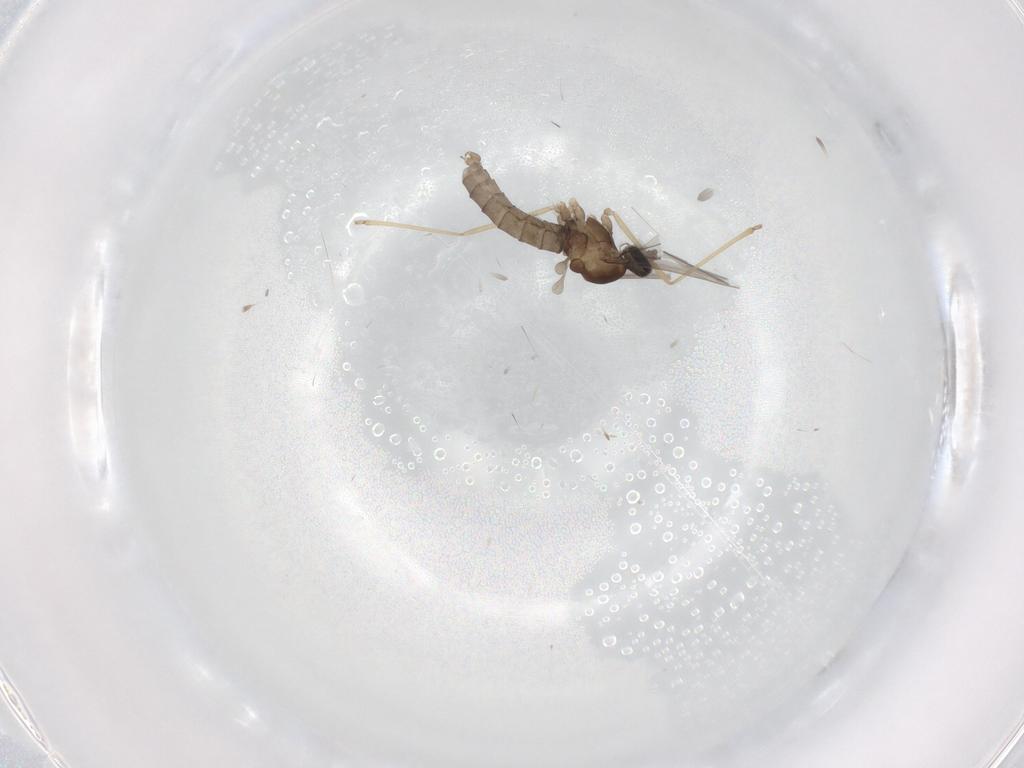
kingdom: Animalia
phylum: Arthropoda
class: Insecta
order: Diptera
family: Cecidomyiidae
